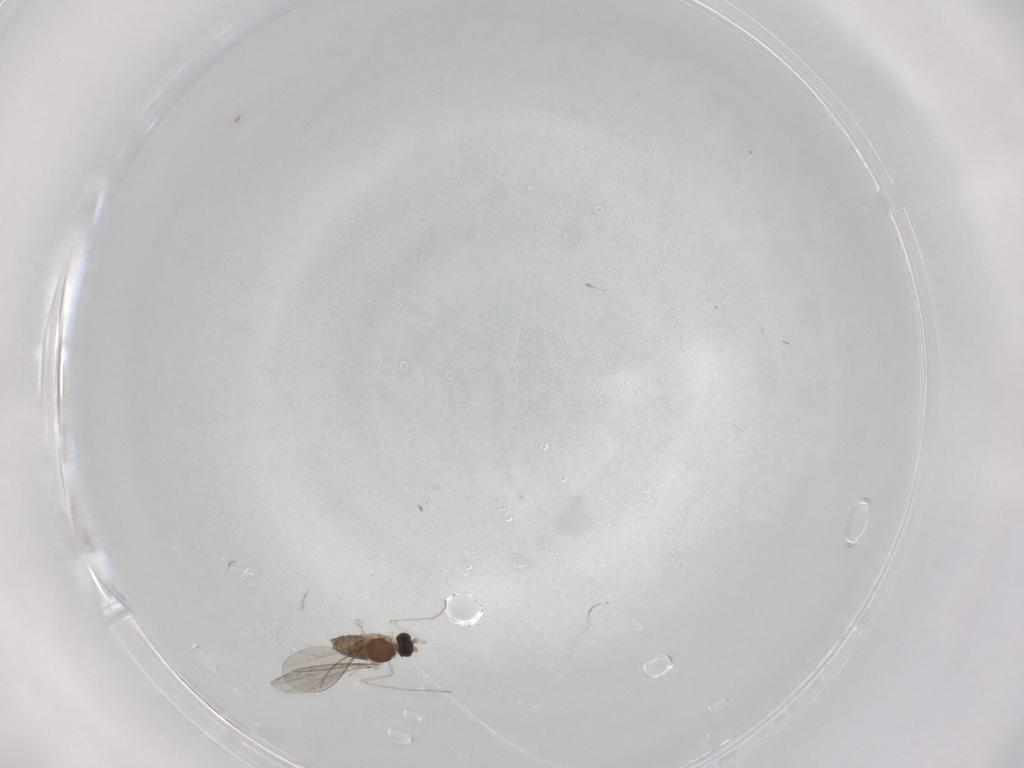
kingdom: Animalia
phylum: Arthropoda
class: Insecta
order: Diptera
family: Cecidomyiidae
